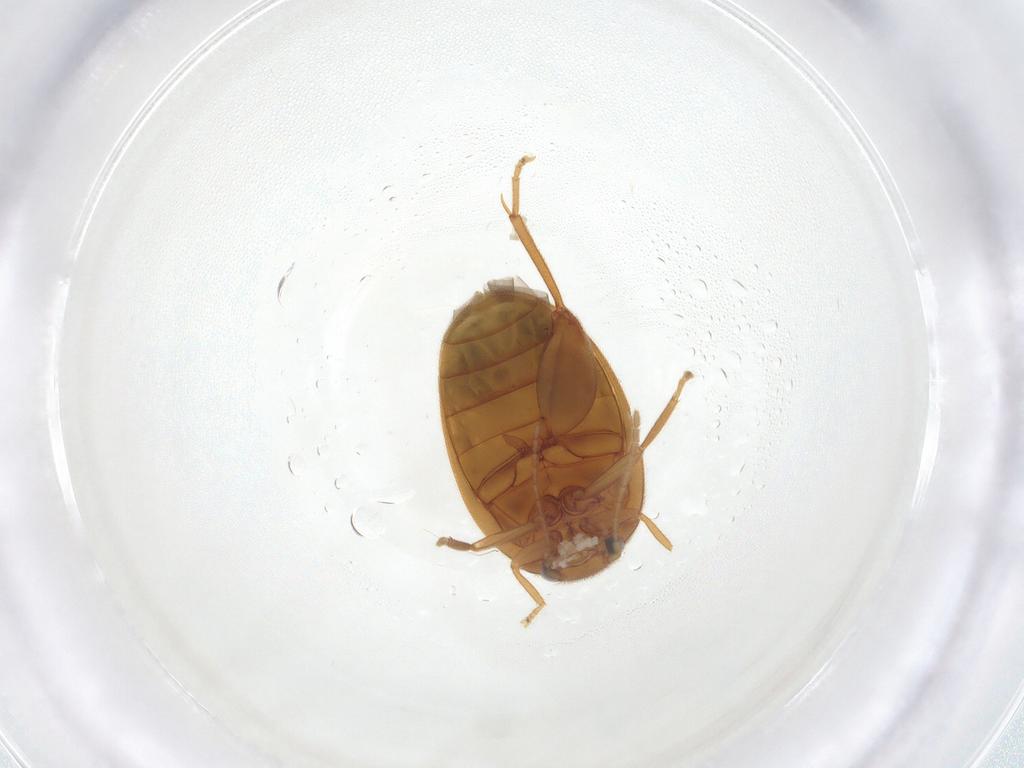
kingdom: Animalia
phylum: Arthropoda
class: Insecta
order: Coleoptera
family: Scirtidae
